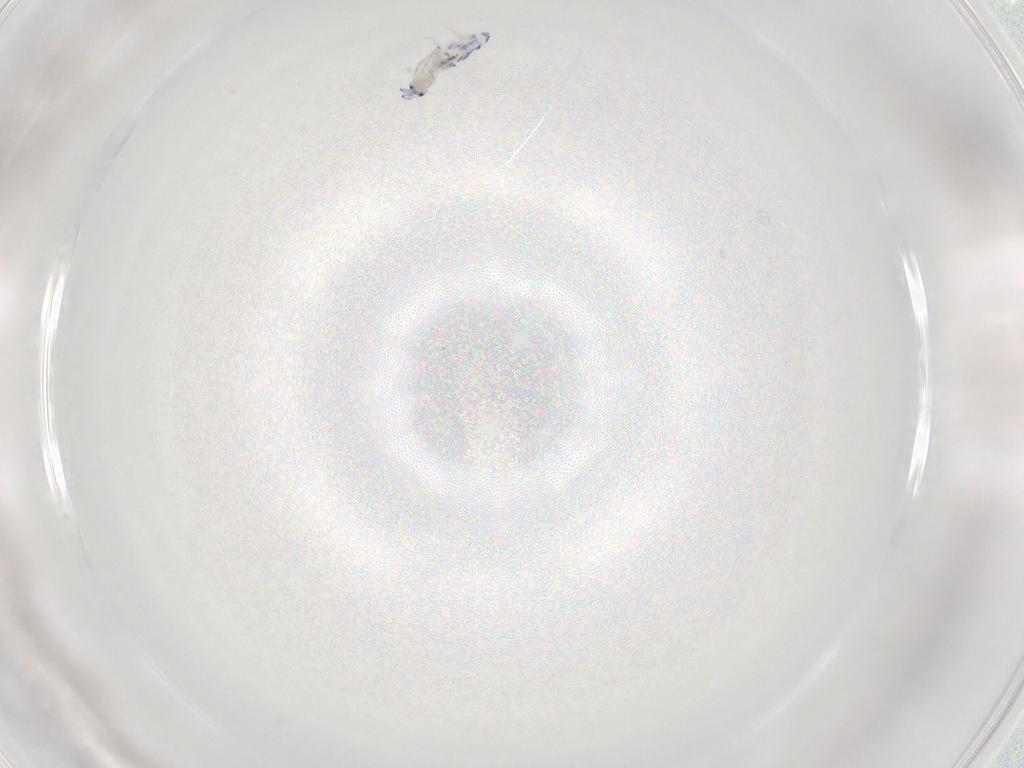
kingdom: Animalia
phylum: Arthropoda
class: Collembola
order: Entomobryomorpha
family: Entomobryidae
